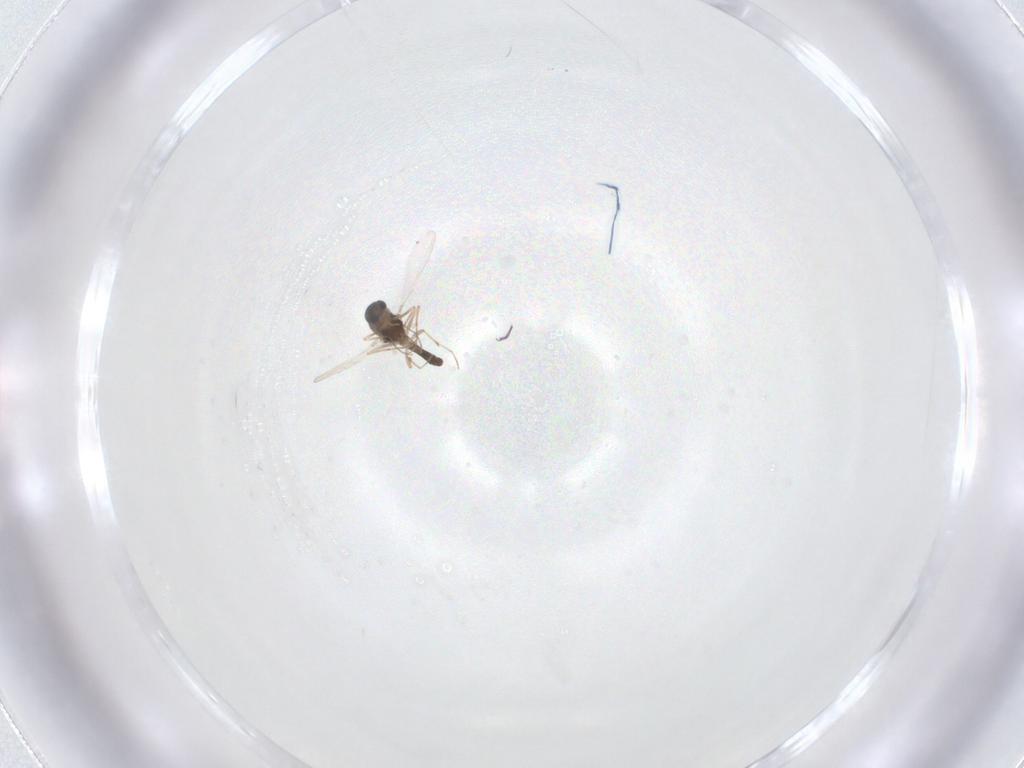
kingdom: Animalia
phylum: Arthropoda
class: Insecta
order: Diptera
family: Chironomidae
